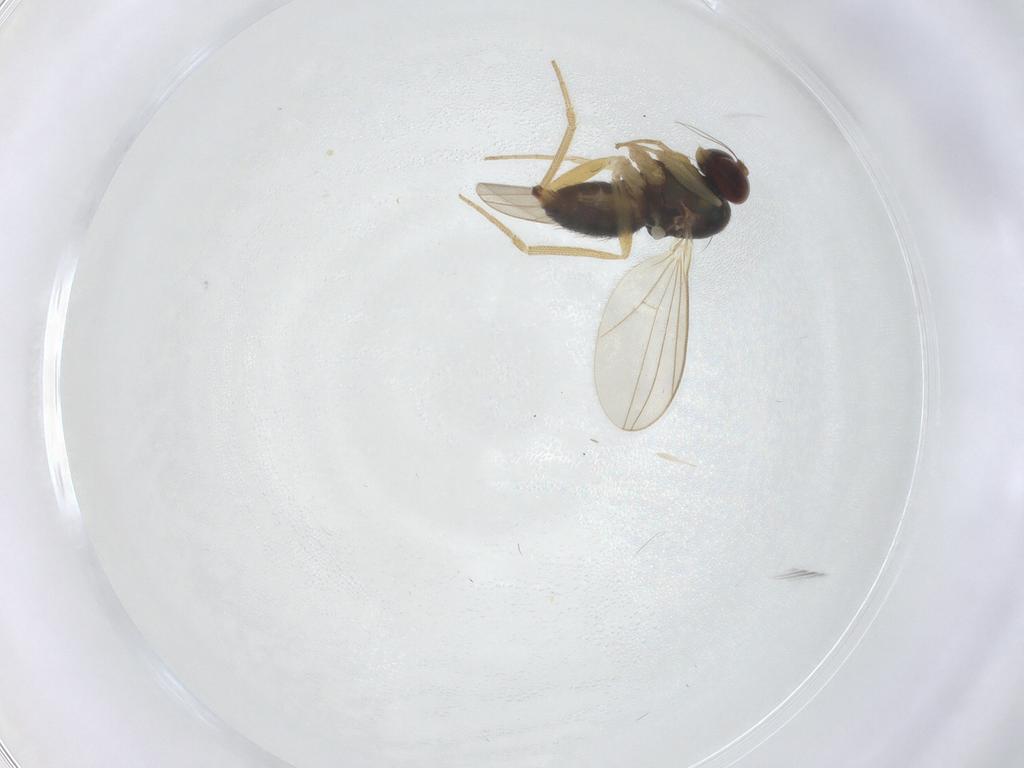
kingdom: Animalia
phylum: Arthropoda
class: Insecta
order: Diptera
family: Dolichopodidae
